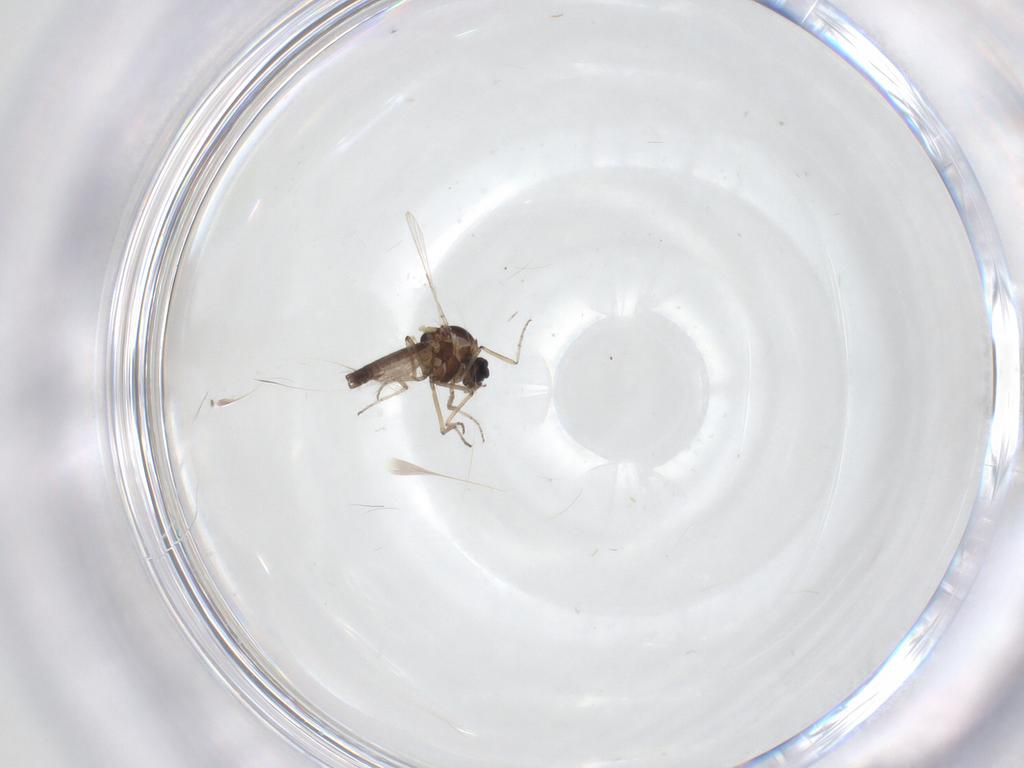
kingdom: Animalia
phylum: Arthropoda
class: Insecta
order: Diptera
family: Ceratopogonidae
